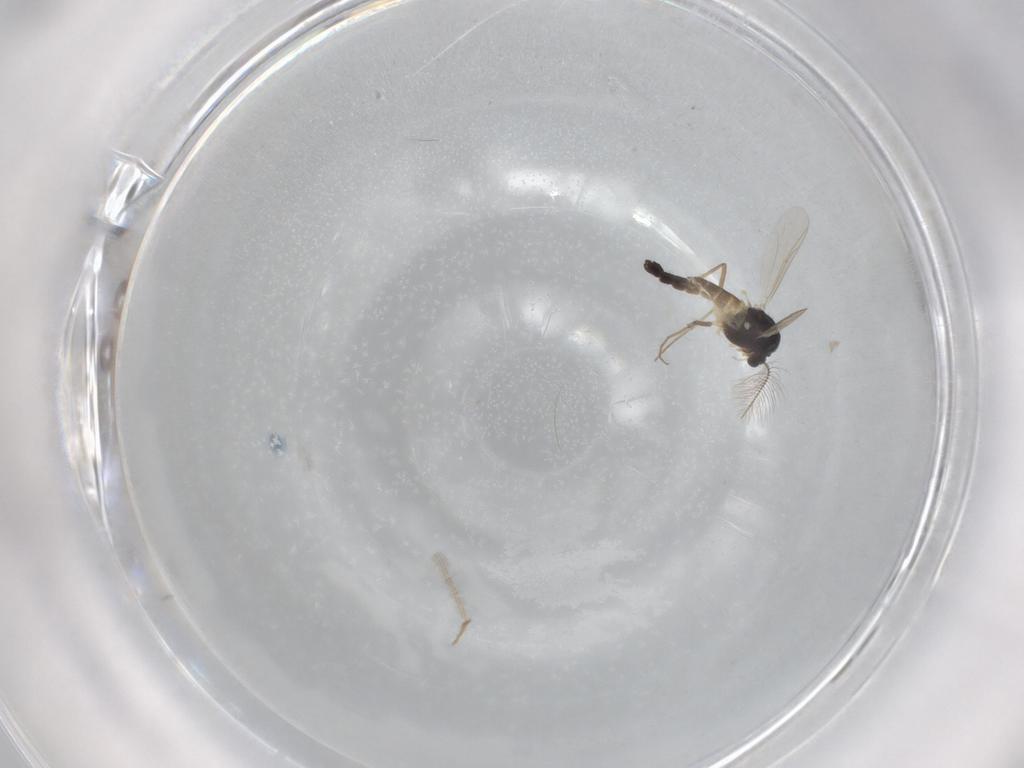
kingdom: Animalia
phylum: Arthropoda
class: Insecta
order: Diptera
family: Chironomidae
